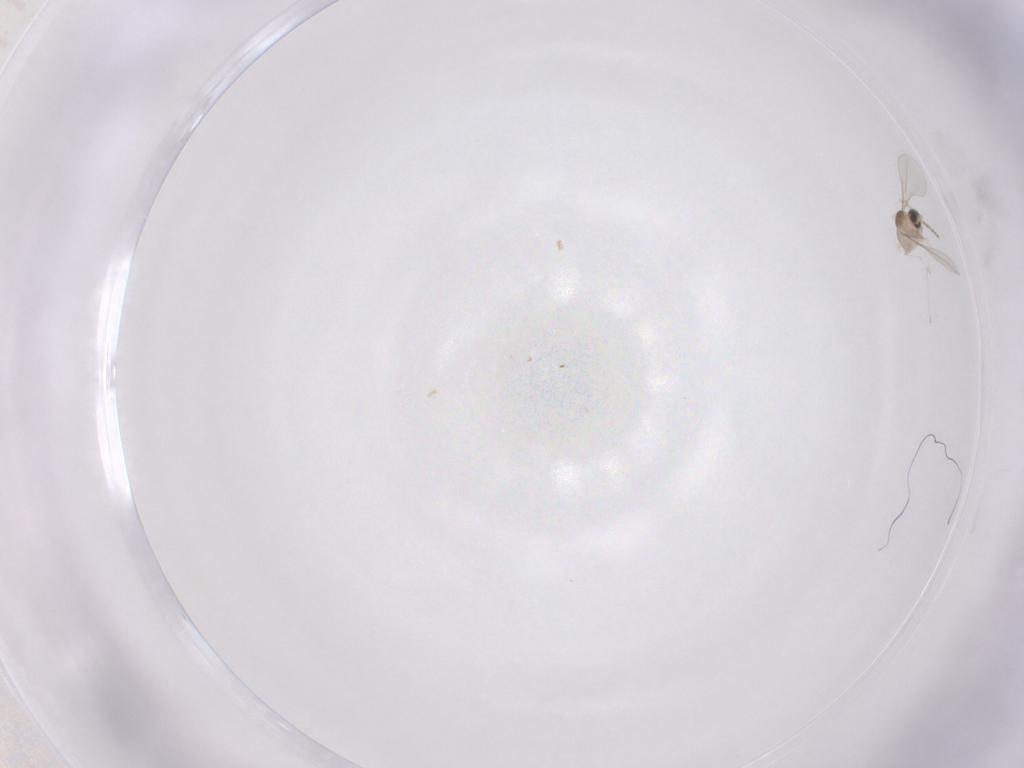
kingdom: Animalia
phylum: Arthropoda
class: Insecta
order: Diptera
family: Cecidomyiidae
